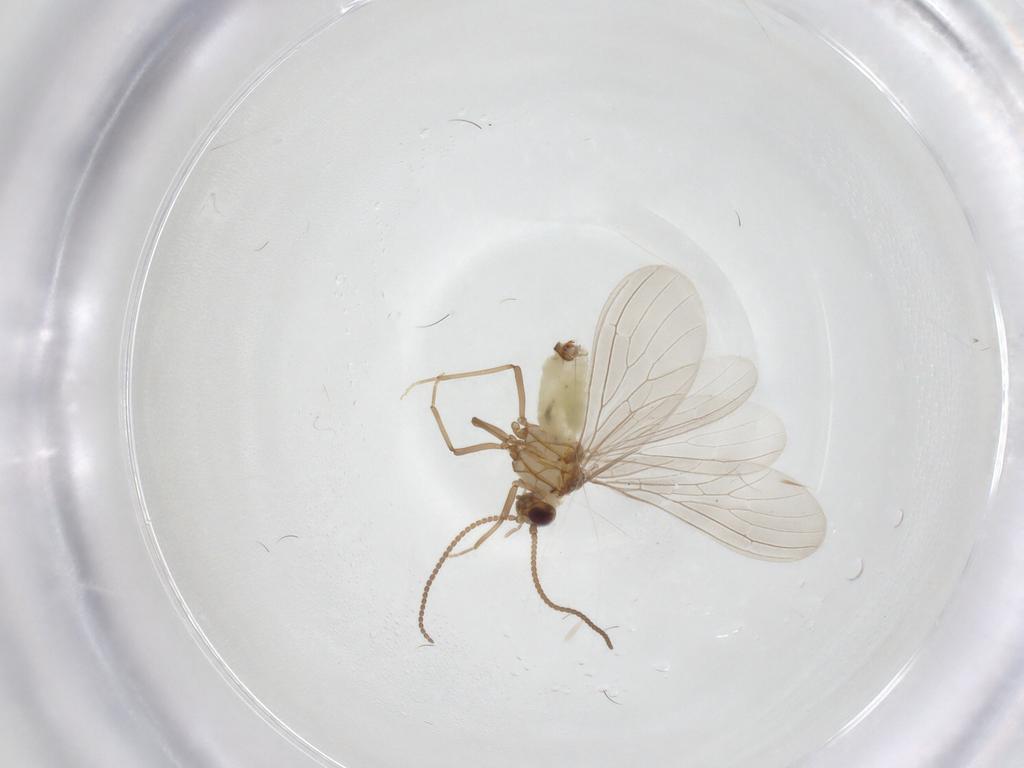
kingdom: Animalia
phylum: Arthropoda
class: Insecta
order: Neuroptera
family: Coniopterygidae
